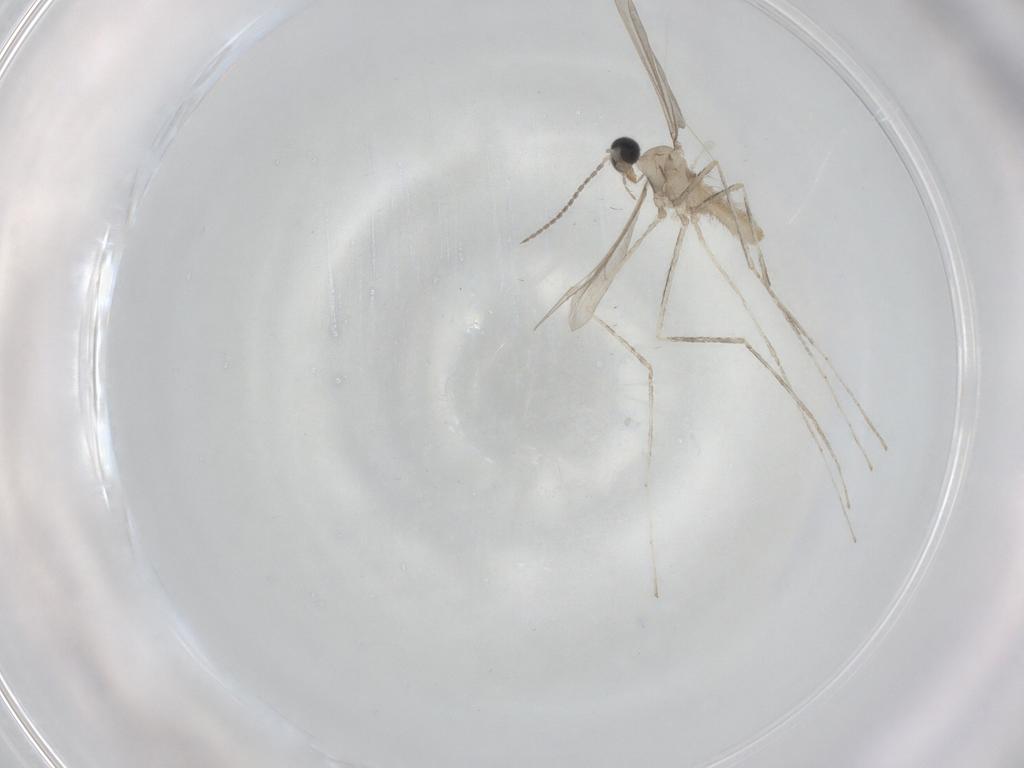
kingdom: Animalia
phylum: Arthropoda
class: Insecta
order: Diptera
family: Cecidomyiidae
